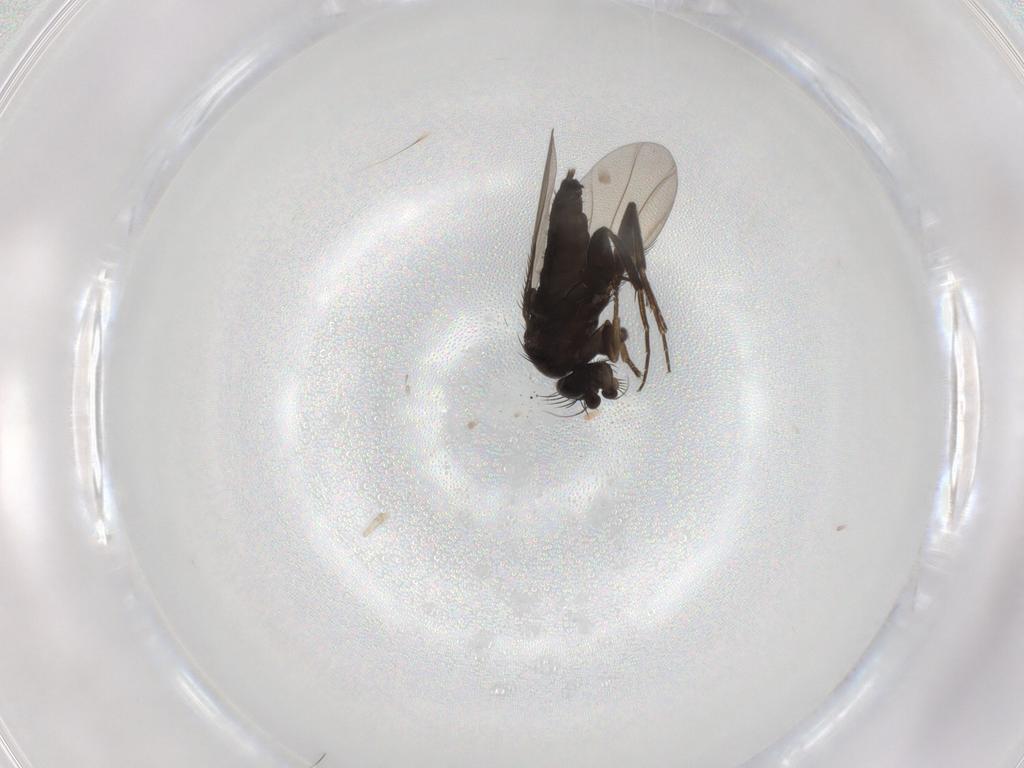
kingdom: Animalia
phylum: Arthropoda
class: Insecta
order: Diptera
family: Phoridae
